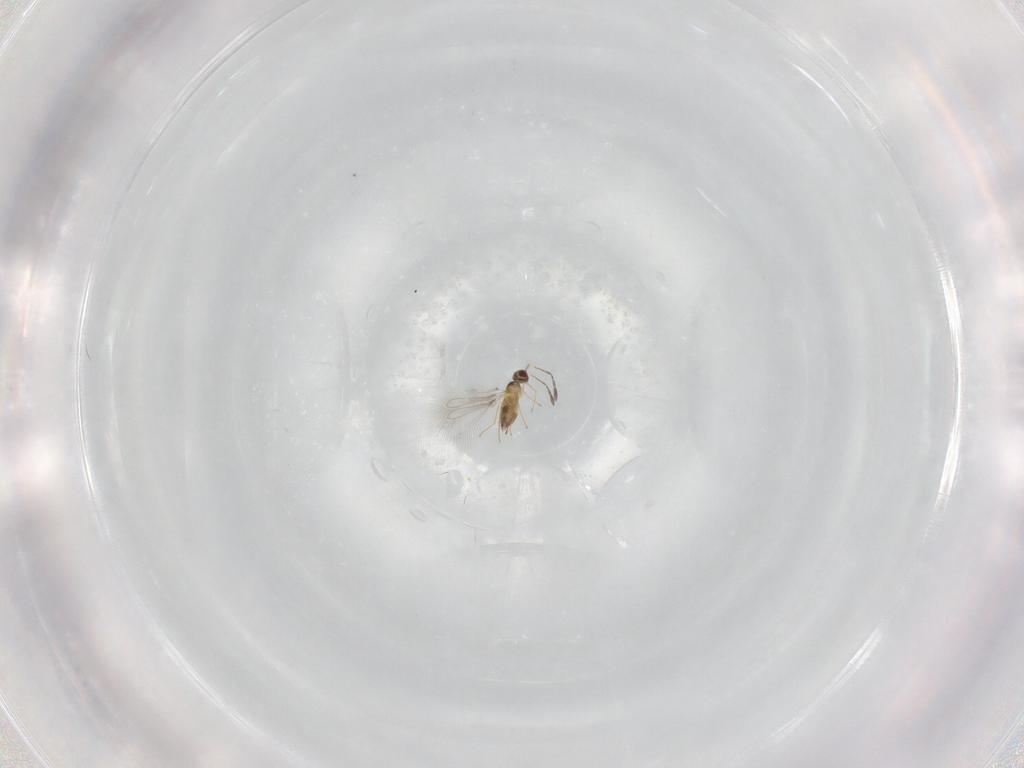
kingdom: Animalia
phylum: Arthropoda
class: Insecta
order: Hymenoptera
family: Mymaridae
